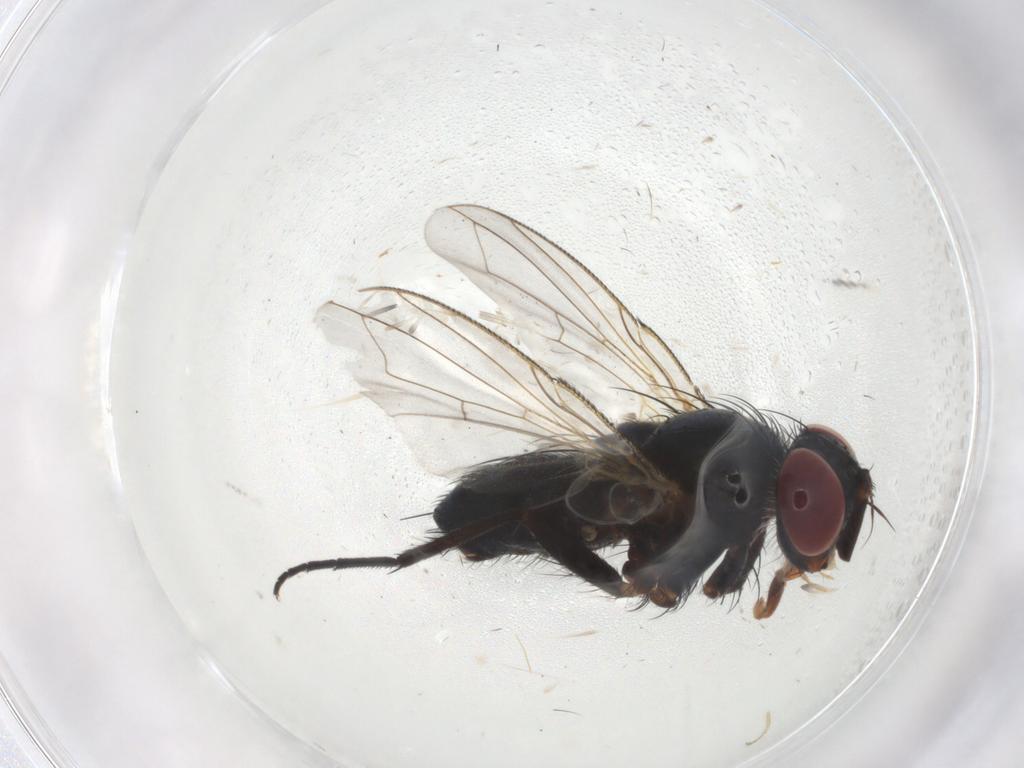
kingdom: Animalia
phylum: Arthropoda
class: Insecta
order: Diptera
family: Tachinidae
